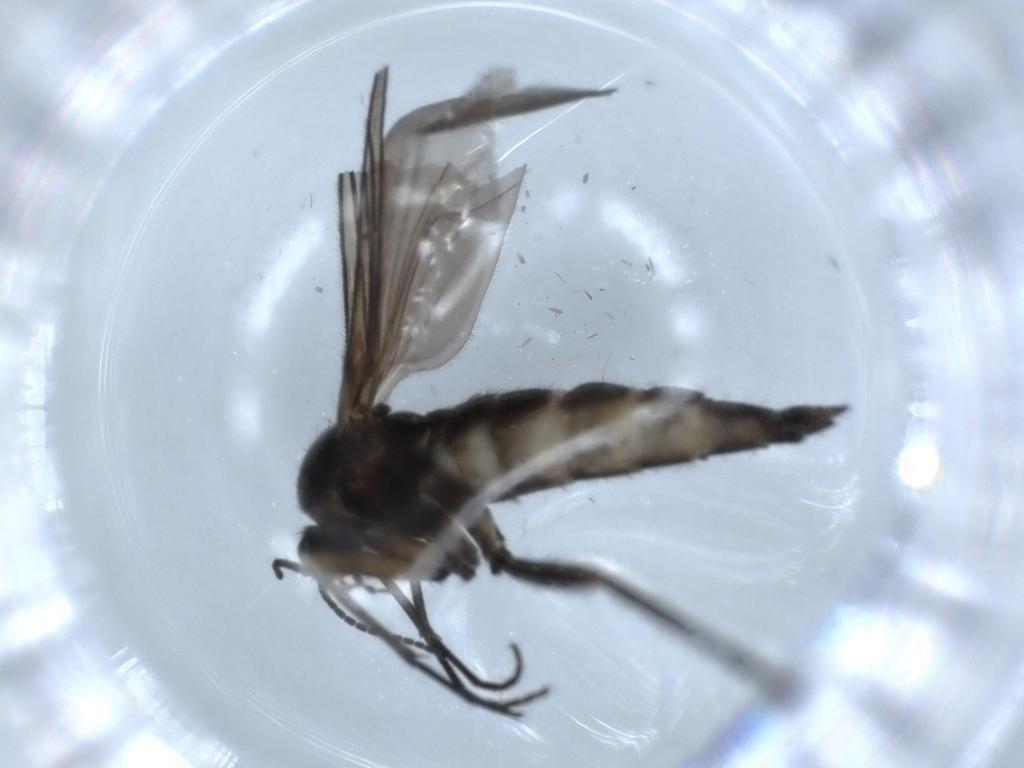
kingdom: Animalia
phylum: Arthropoda
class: Insecta
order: Diptera
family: Sciaridae
